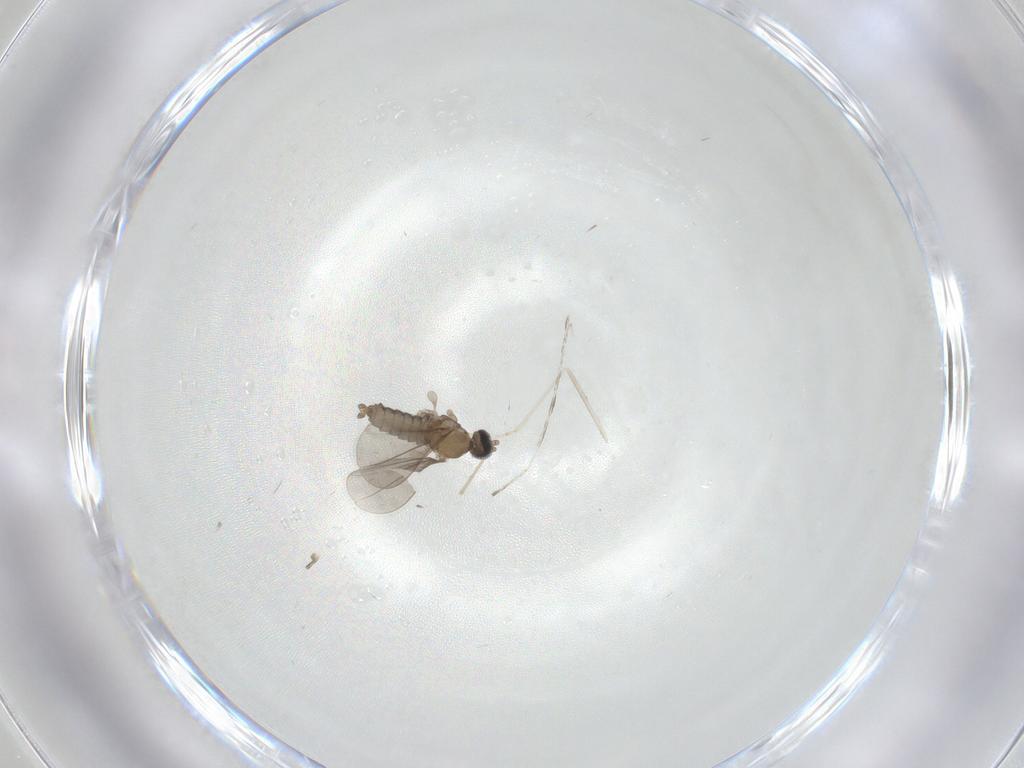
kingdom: Animalia
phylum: Arthropoda
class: Insecta
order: Diptera
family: Cecidomyiidae
